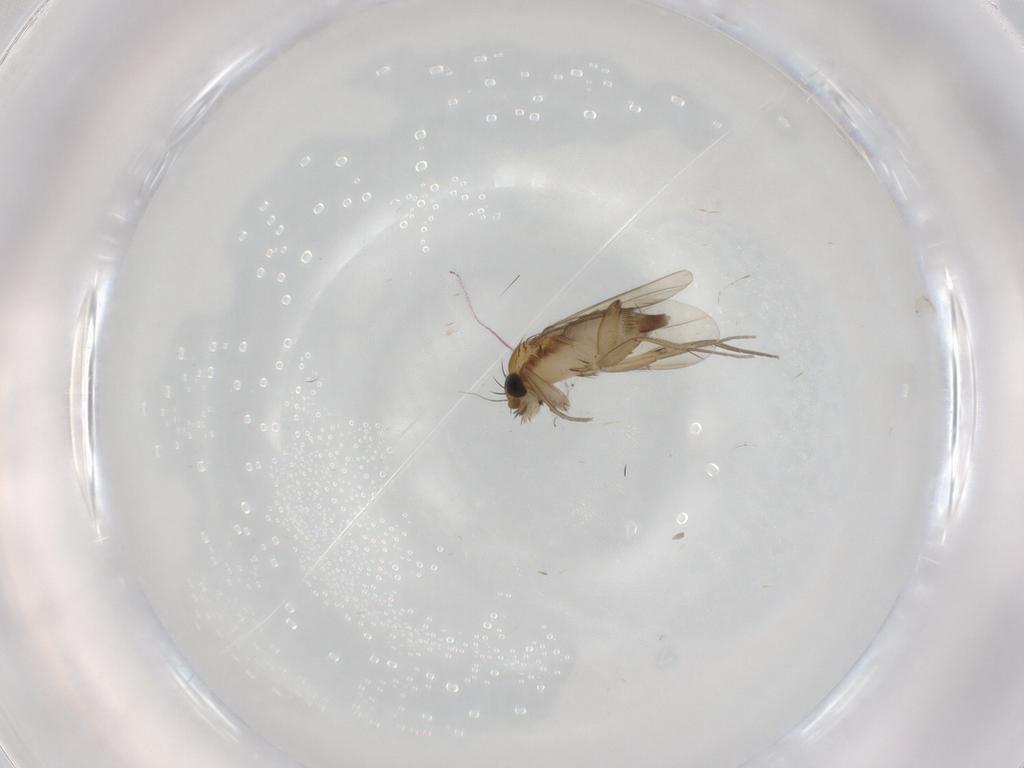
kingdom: Animalia
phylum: Arthropoda
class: Insecta
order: Diptera
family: Phoridae
